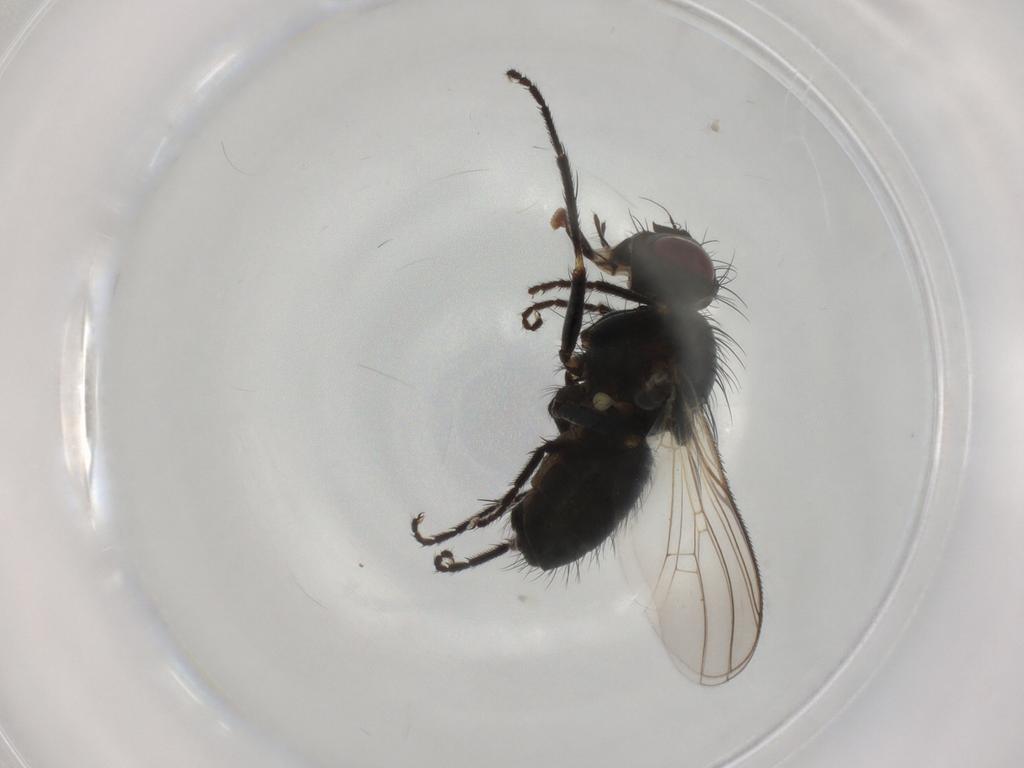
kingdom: Animalia
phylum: Arthropoda
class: Insecta
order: Diptera
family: Muscidae
